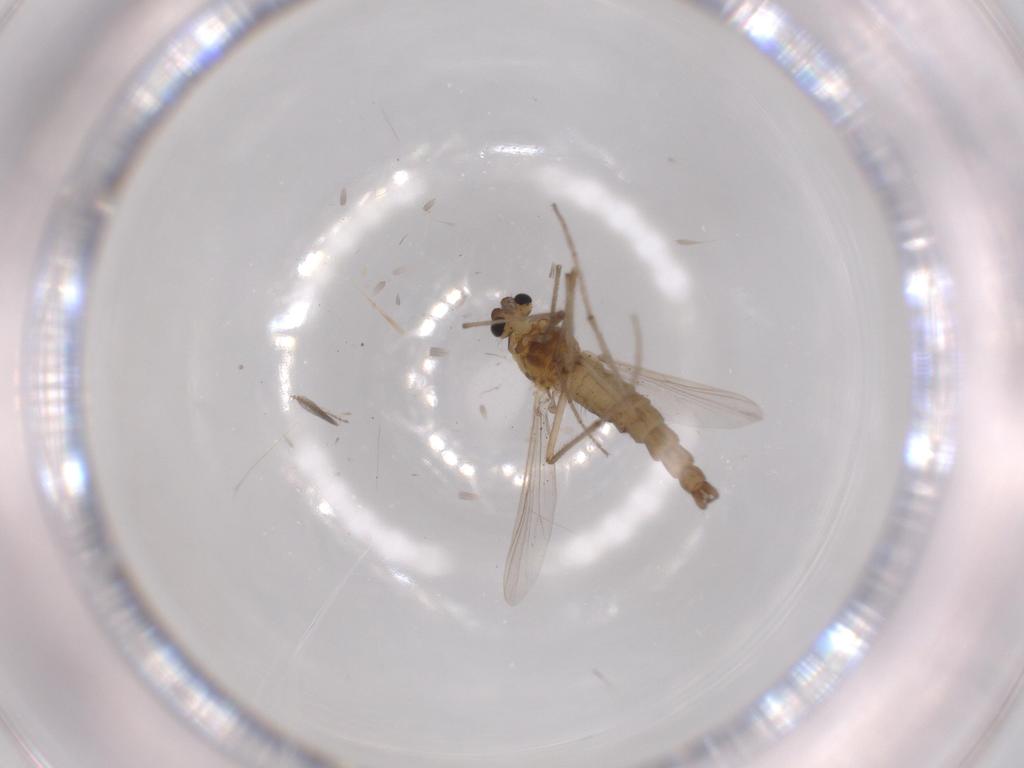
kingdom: Animalia
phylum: Arthropoda
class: Insecta
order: Diptera
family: Chironomidae
